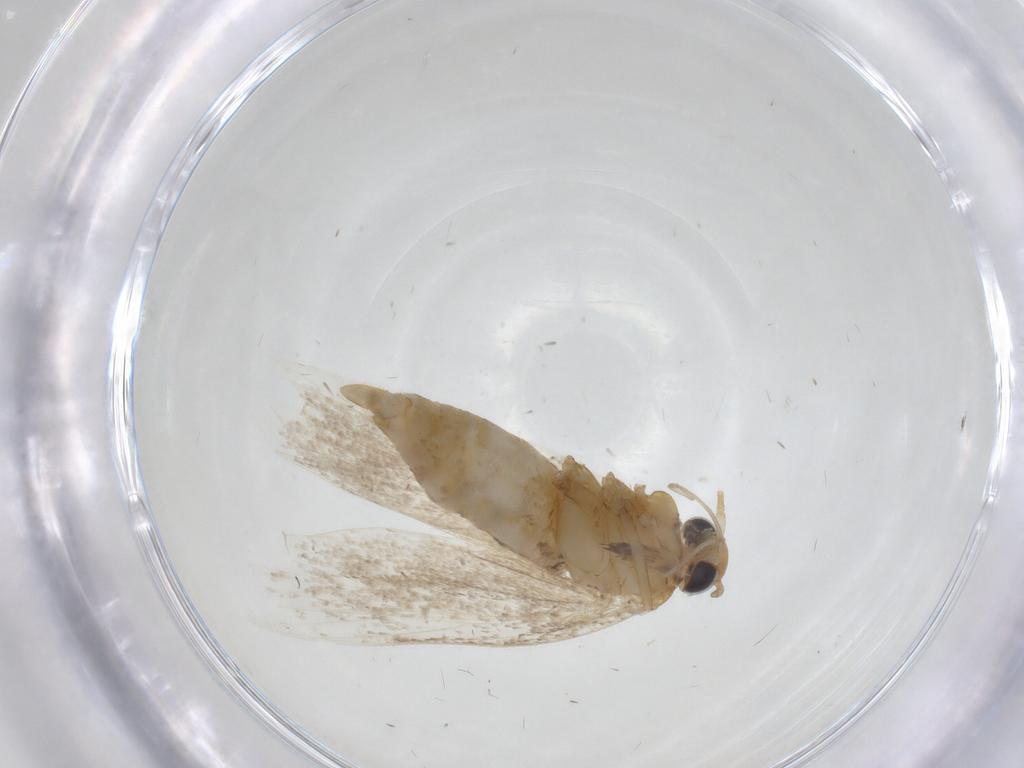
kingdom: Animalia
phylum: Arthropoda
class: Insecta
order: Lepidoptera
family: Oecophoridae
